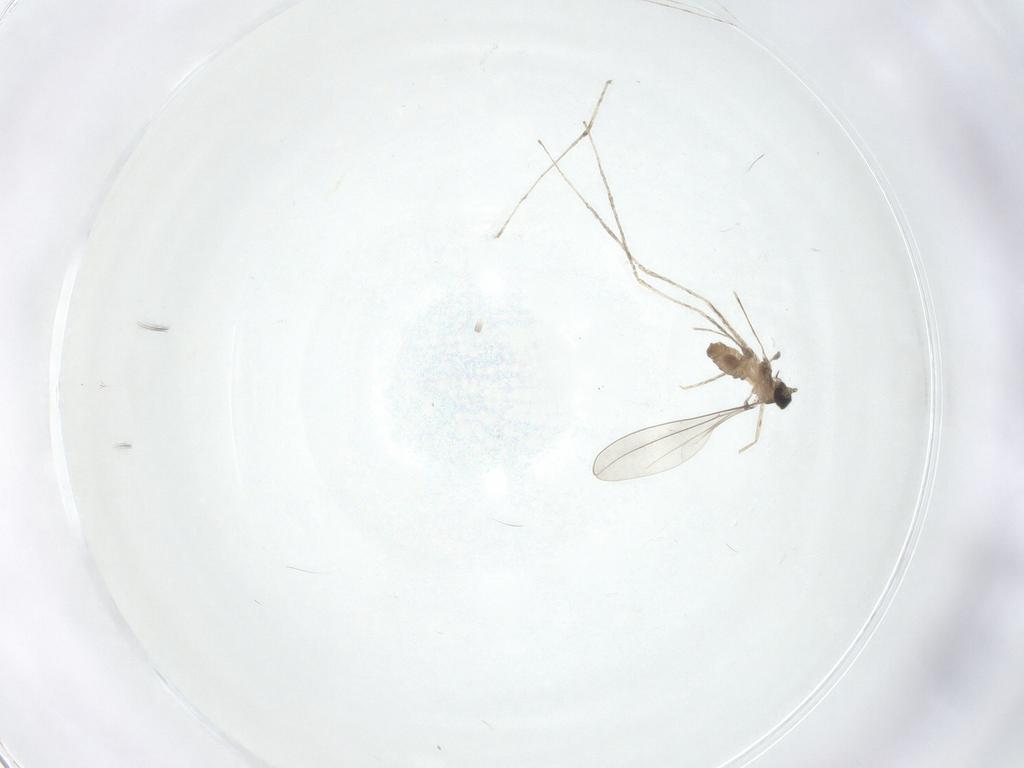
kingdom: Animalia
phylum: Arthropoda
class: Insecta
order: Diptera
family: Cecidomyiidae
